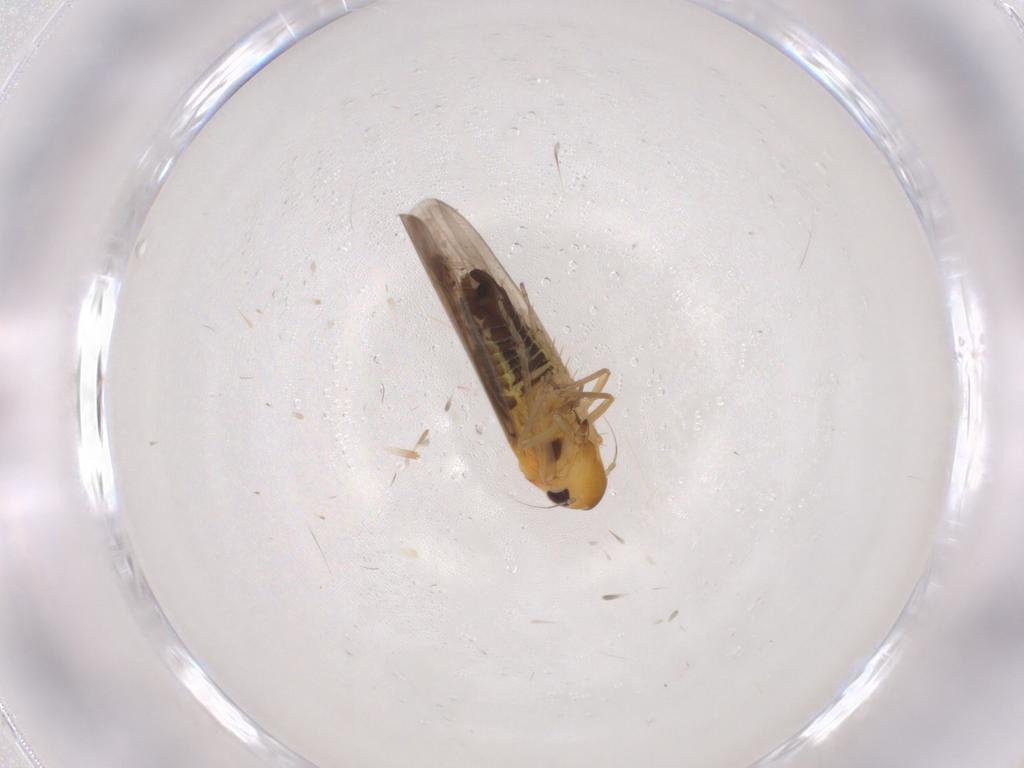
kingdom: Animalia
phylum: Arthropoda
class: Insecta
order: Hemiptera
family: Cicadellidae
